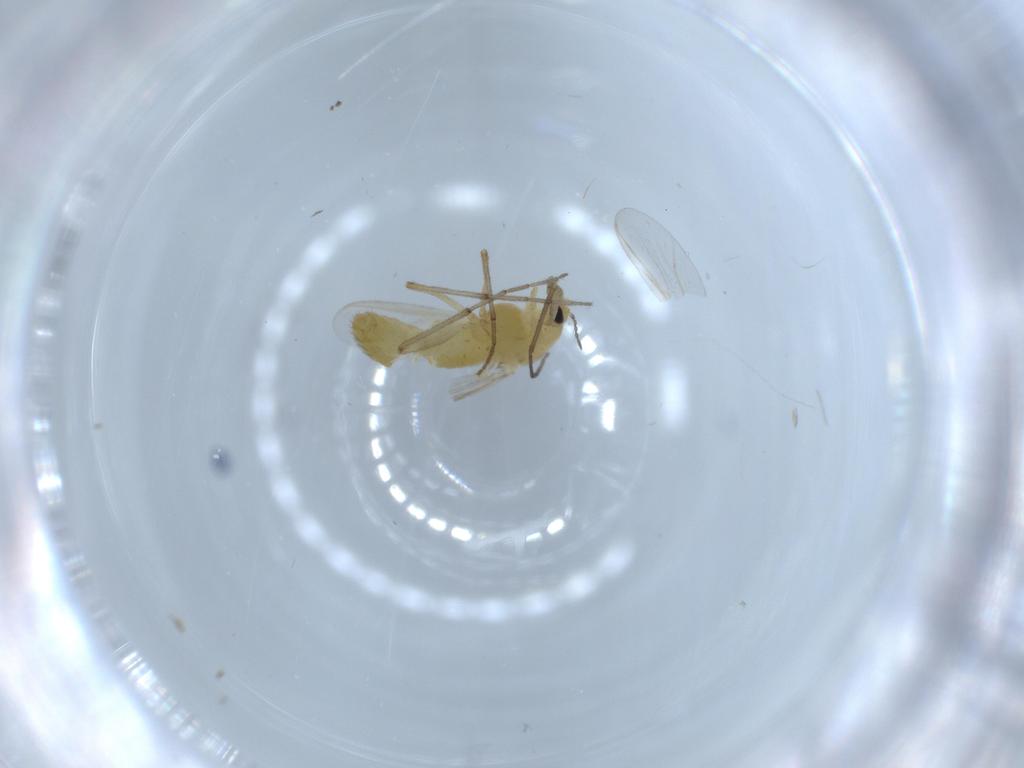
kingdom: Animalia
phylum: Arthropoda
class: Insecta
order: Diptera
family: Chironomidae
